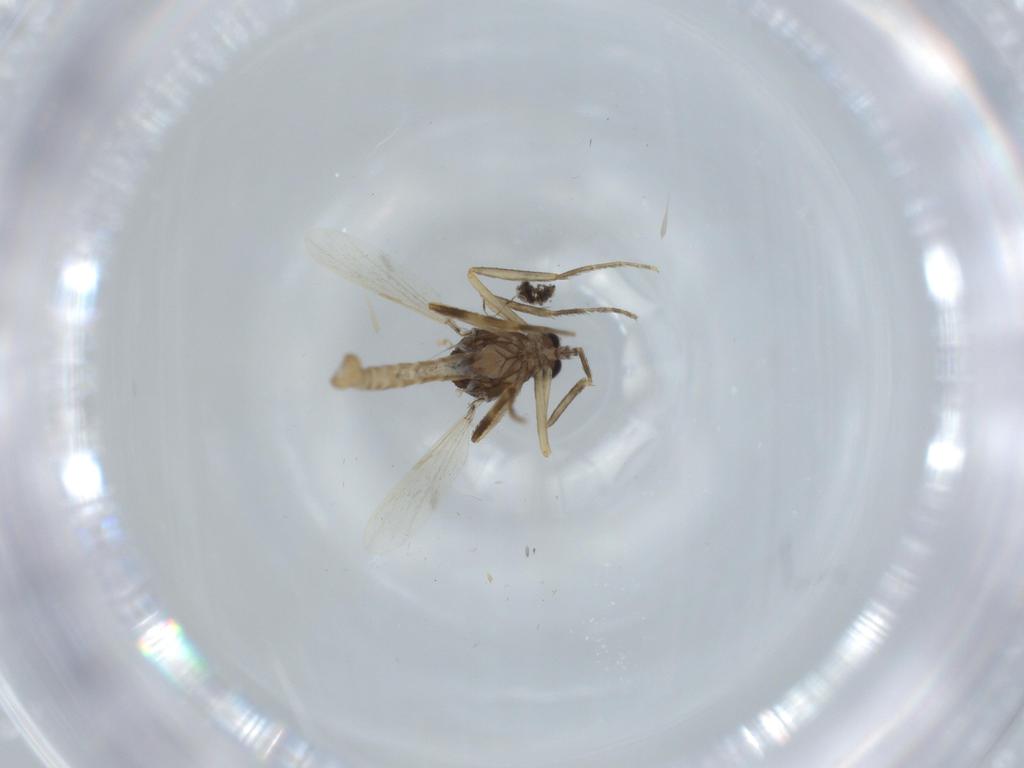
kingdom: Animalia
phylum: Arthropoda
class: Insecta
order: Diptera
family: Ceratopogonidae
